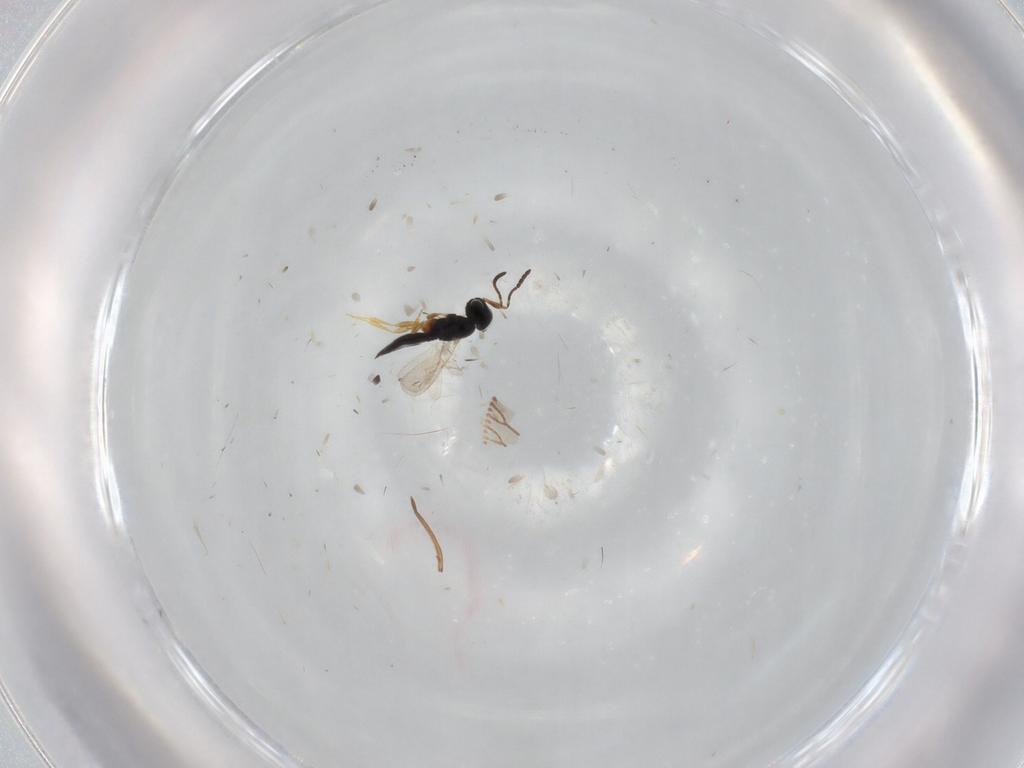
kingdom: Animalia
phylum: Arthropoda
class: Insecta
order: Hymenoptera
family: Scelionidae
